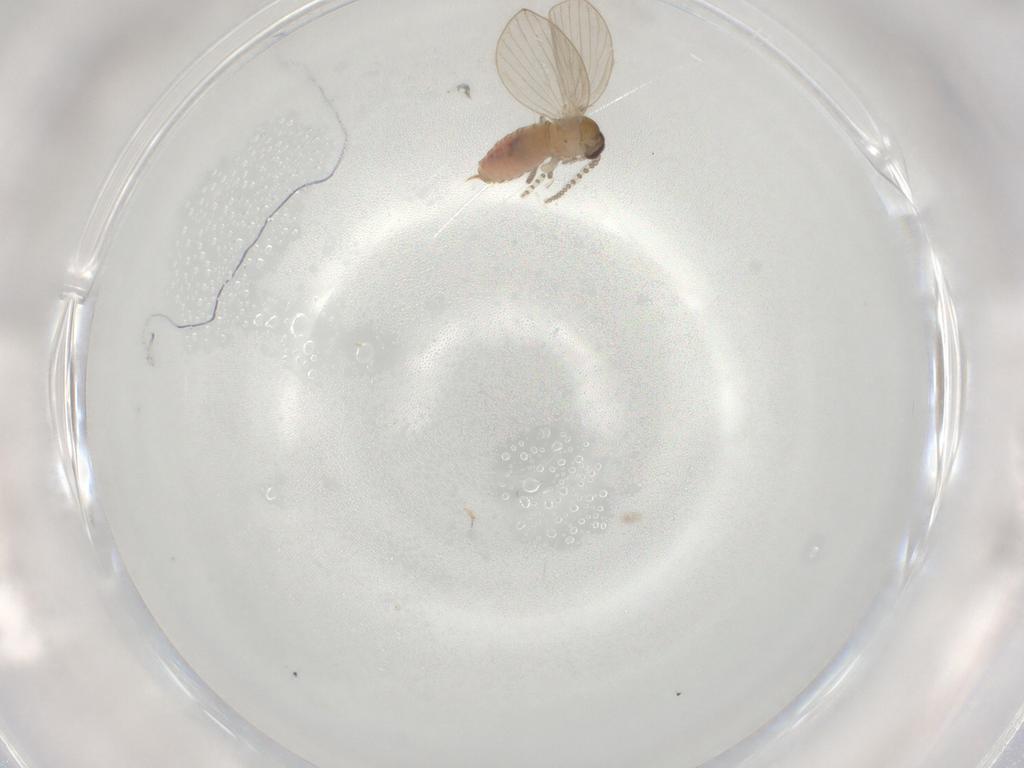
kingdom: Animalia
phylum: Arthropoda
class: Insecta
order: Diptera
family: Psychodidae
